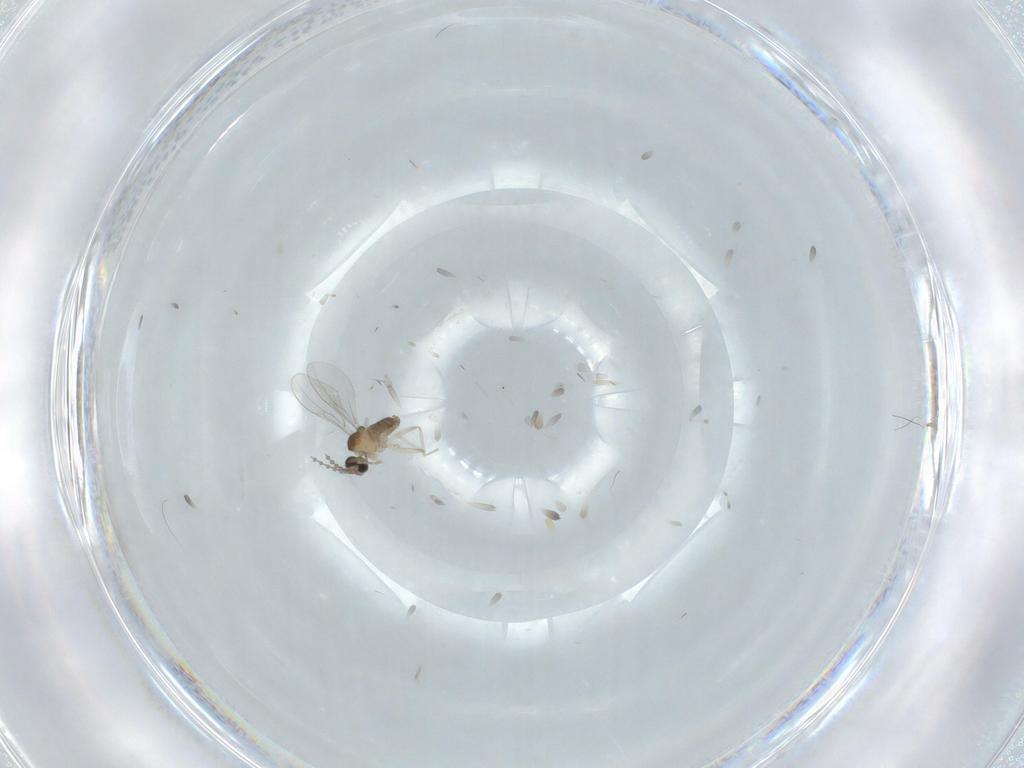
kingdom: Animalia
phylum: Arthropoda
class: Insecta
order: Diptera
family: Cecidomyiidae
